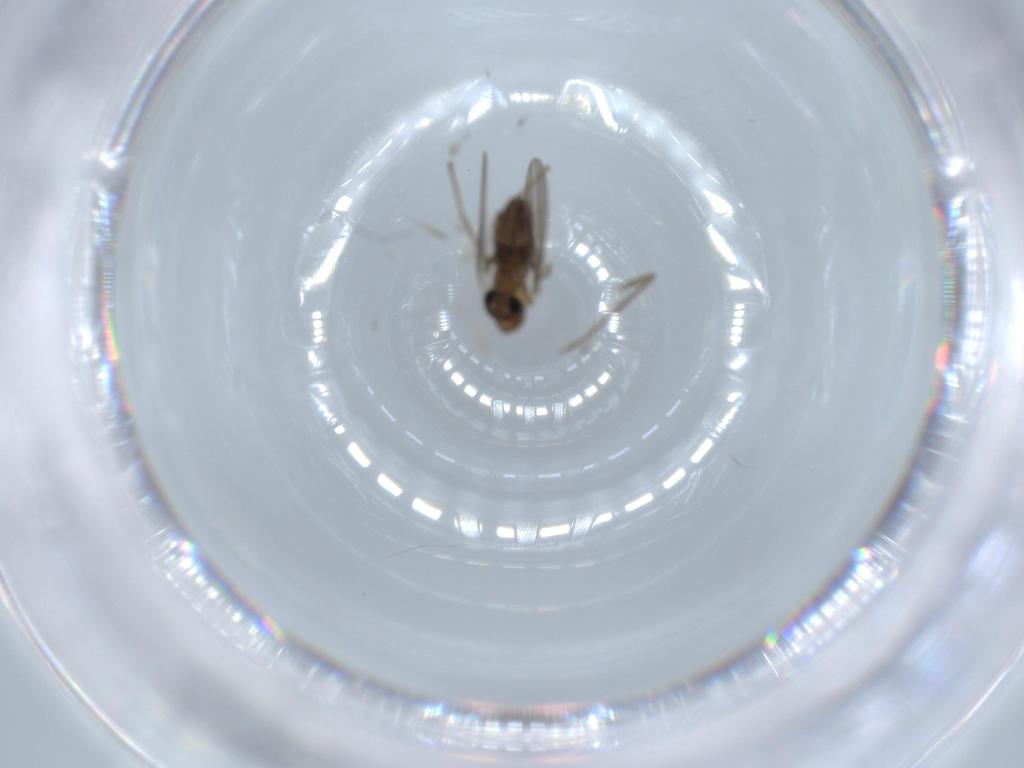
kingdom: Animalia
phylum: Arthropoda
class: Insecta
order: Diptera
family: Psychodidae
